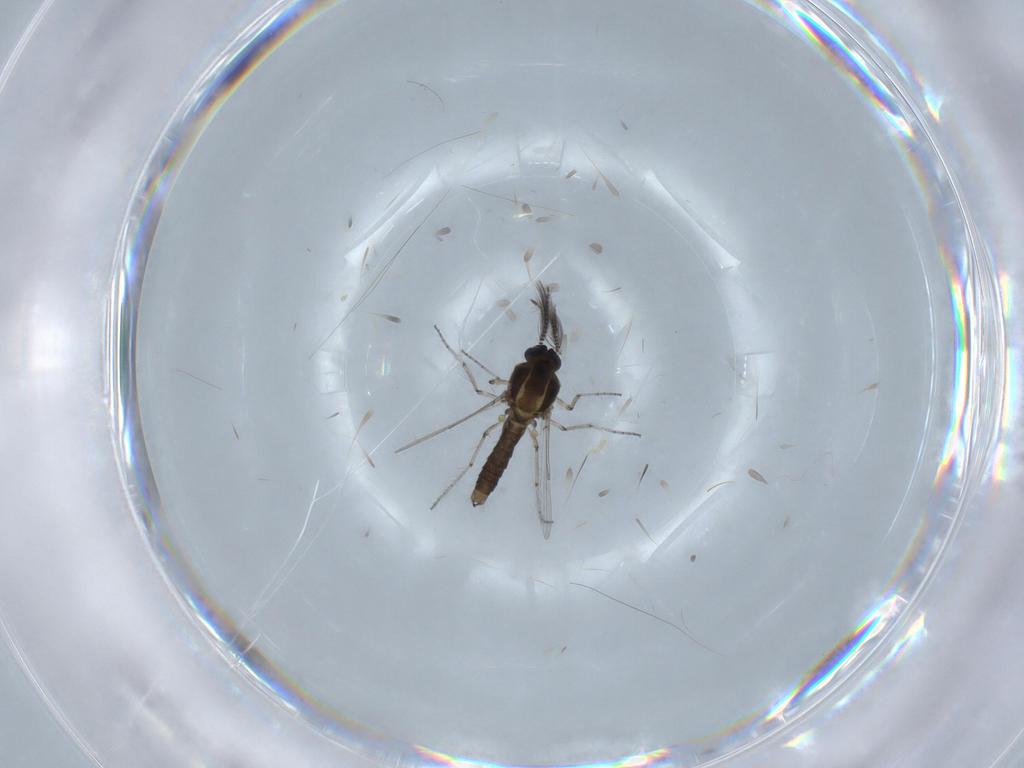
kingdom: Animalia
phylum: Arthropoda
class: Insecta
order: Diptera
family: Ceratopogonidae
